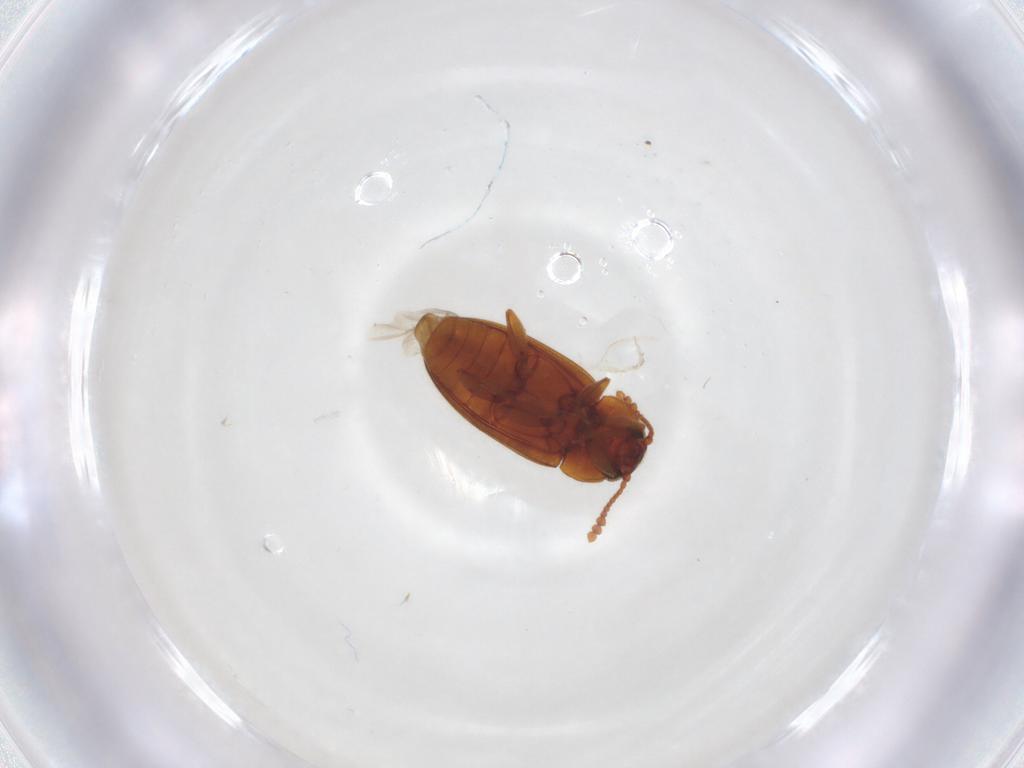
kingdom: Animalia
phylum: Arthropoda
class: Insecta
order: Coleoptera
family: Erotylidae
